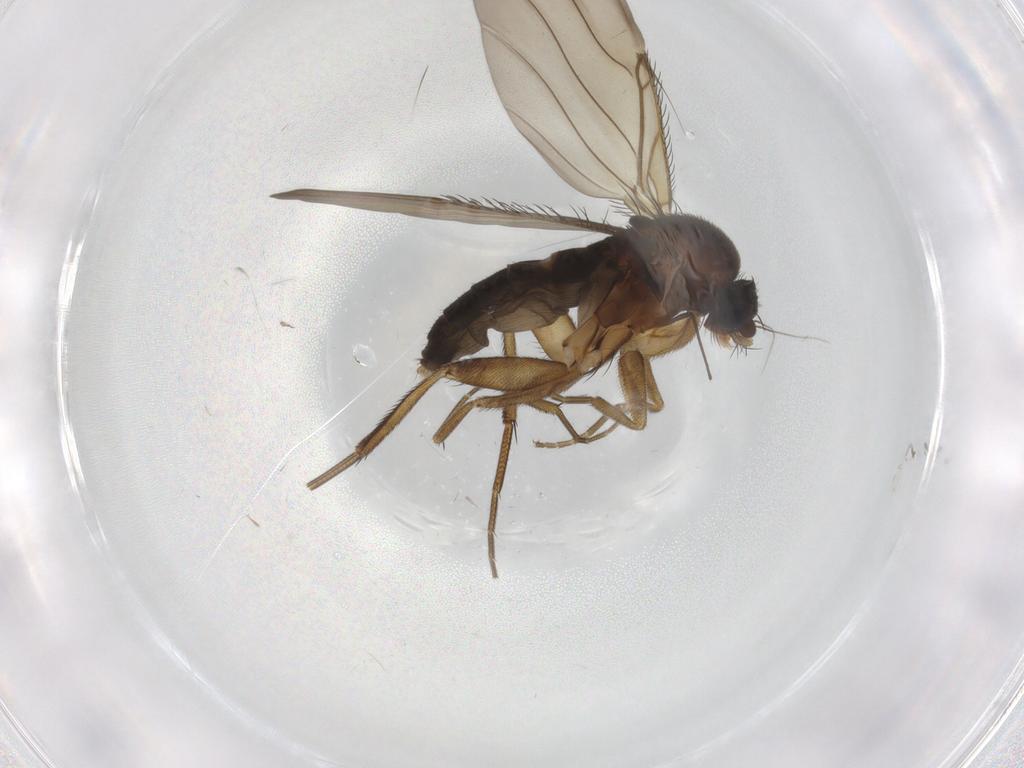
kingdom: Animalia
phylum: Arthropoda
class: Insecta
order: Diptera
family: Phoridae
